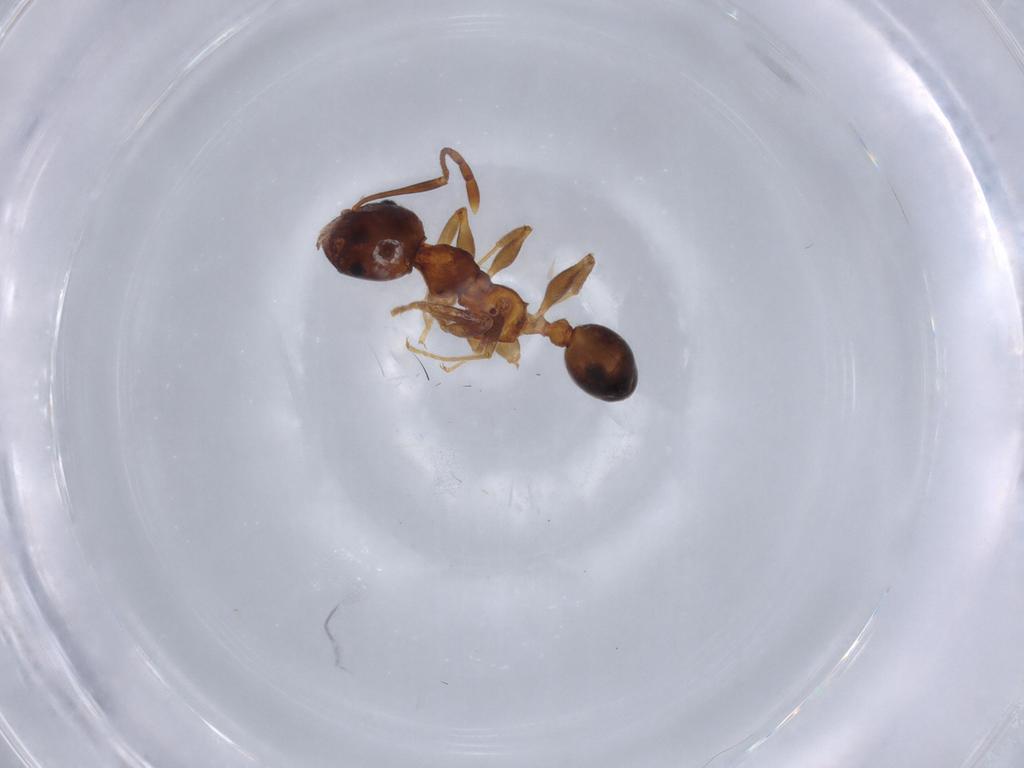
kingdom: Animalia
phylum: Arthropoda
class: Insecta
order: Hymenoptera
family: Formicidae
